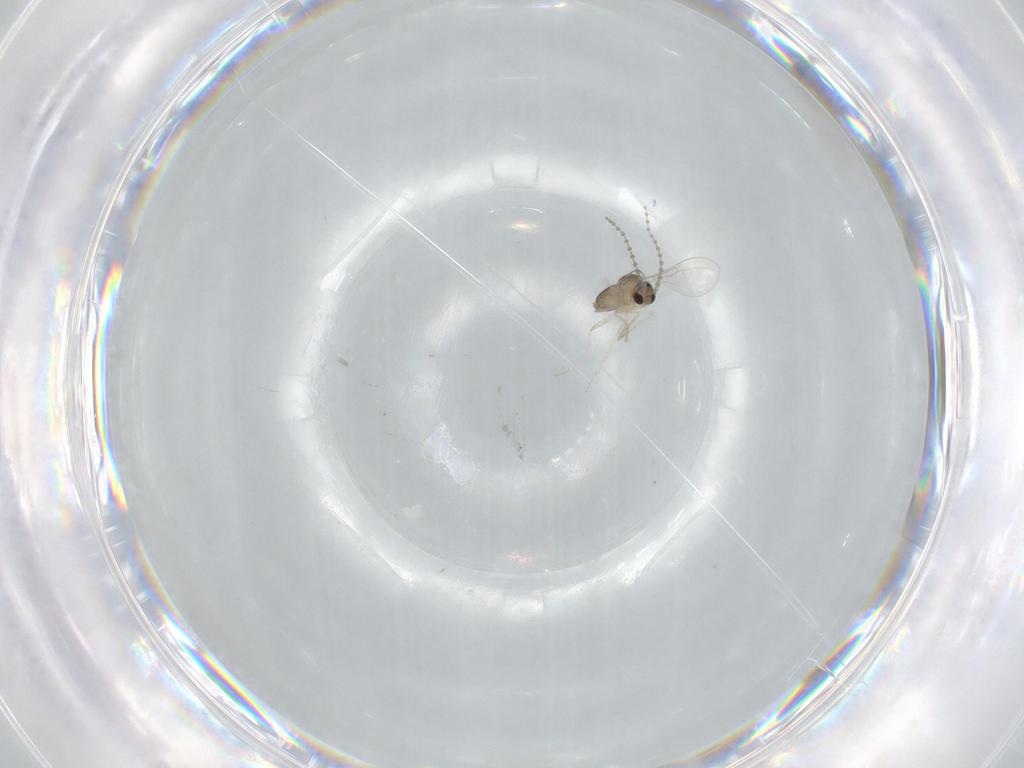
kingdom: Animalia
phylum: Arthropoda
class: Insecta
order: Diptera
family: Cecidomyiidae
